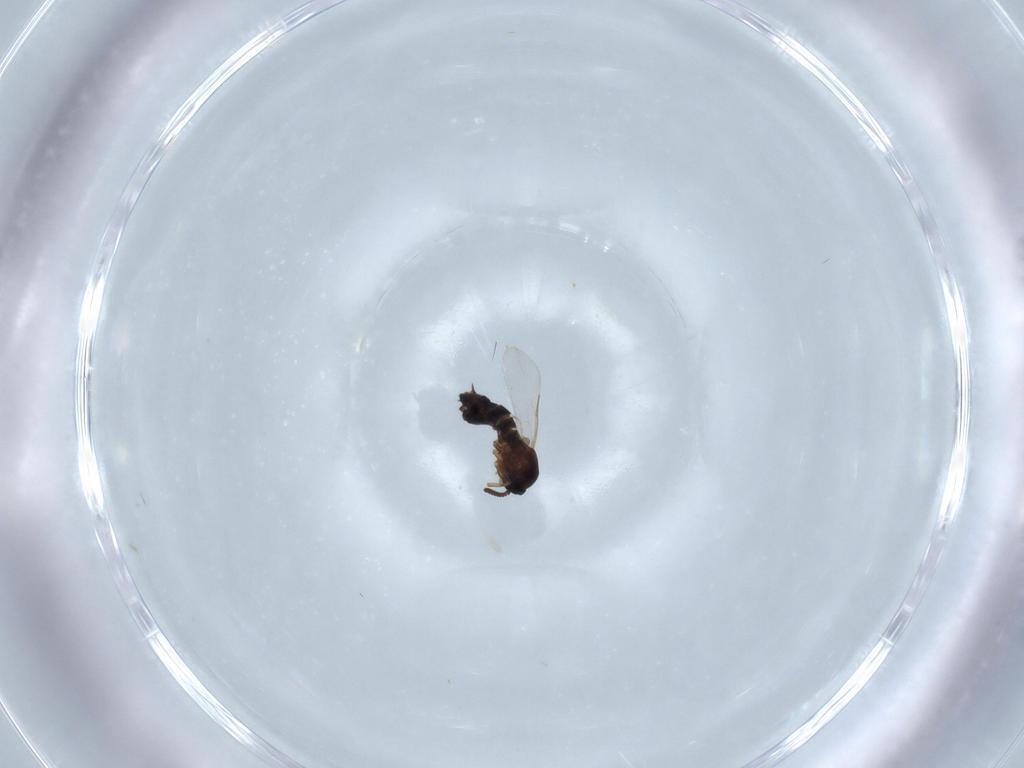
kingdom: Animalia
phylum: Arthropoda
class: Insecta
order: Diptera
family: Scatopsidae
